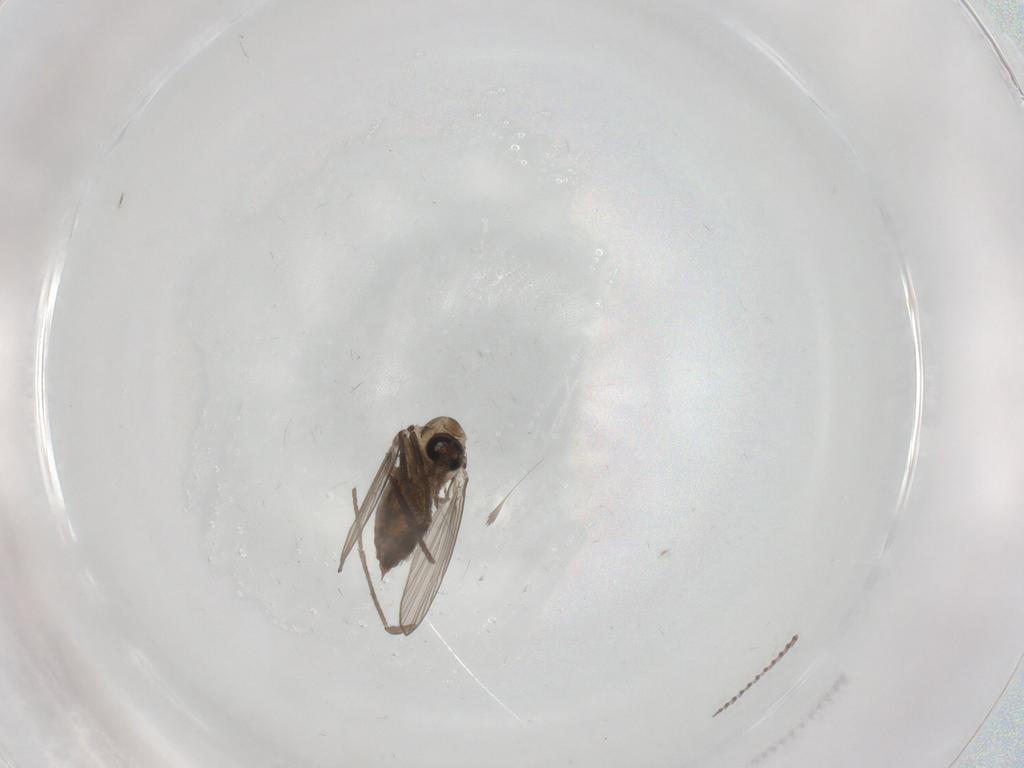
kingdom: Animalia
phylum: Arthropoda
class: Insecta
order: Diptera
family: Psychodidae
